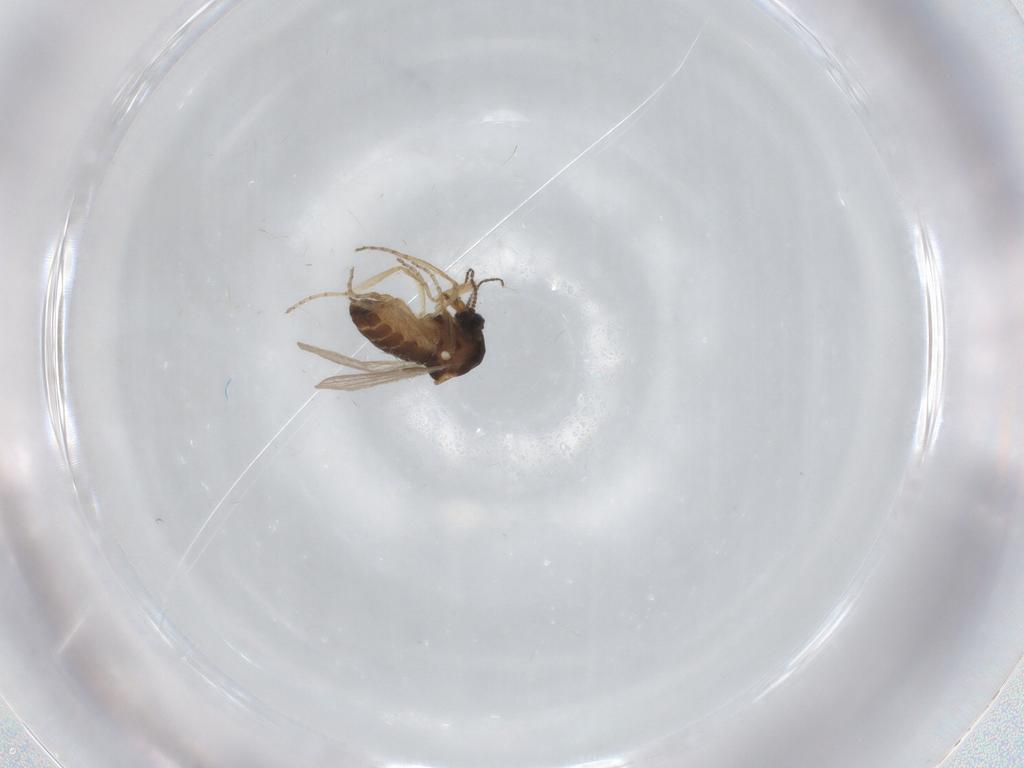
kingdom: Animalia
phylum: Arthropoda
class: Insecta
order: Diptera
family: Ceratopogonidae
